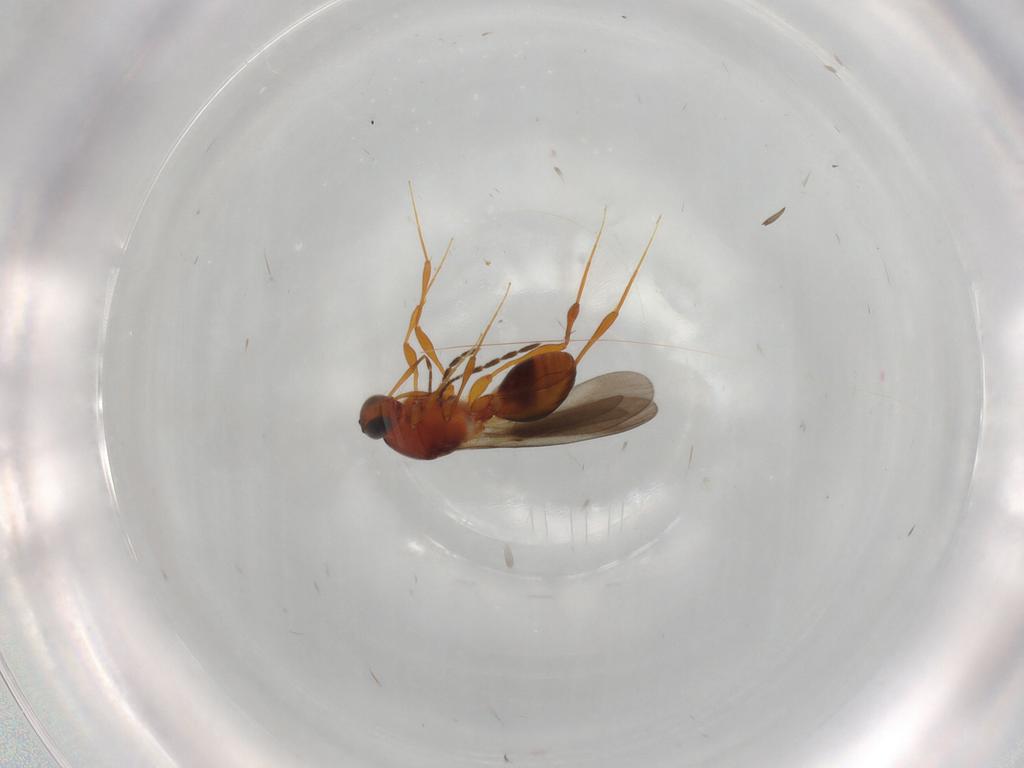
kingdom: Animalia
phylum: Arthropoda
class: Insecta
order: Hymenoptera
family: Platygastridae
